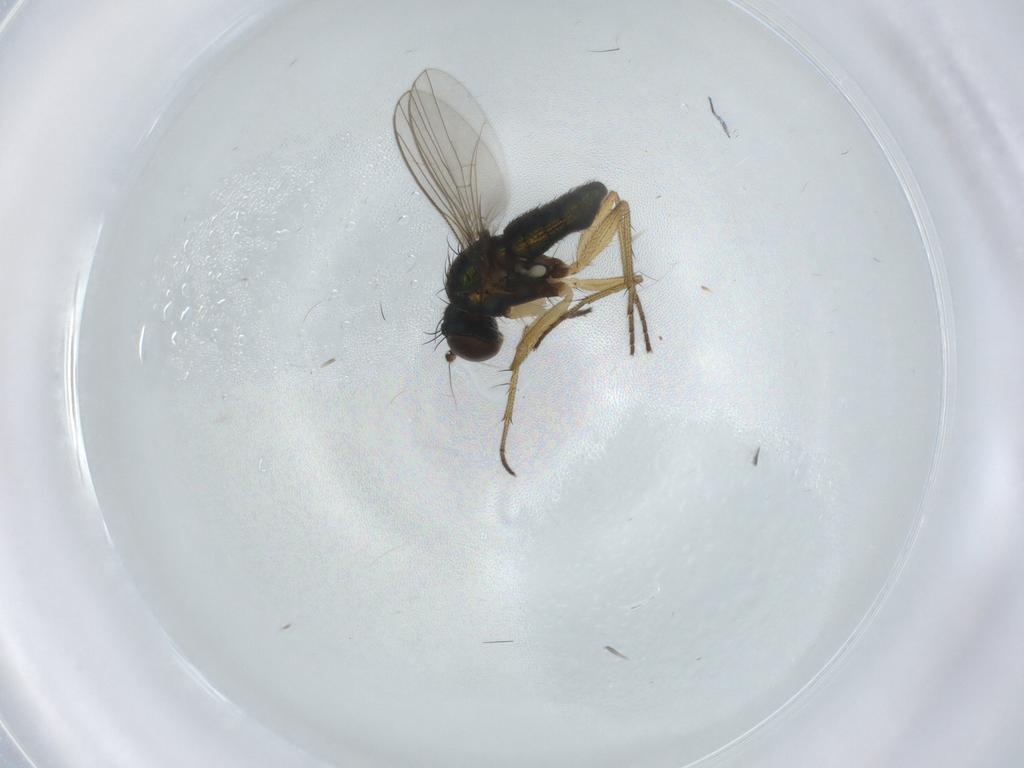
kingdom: Animalia
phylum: Arthropoda
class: Insecta
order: Diptera
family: Dolichopodidae
